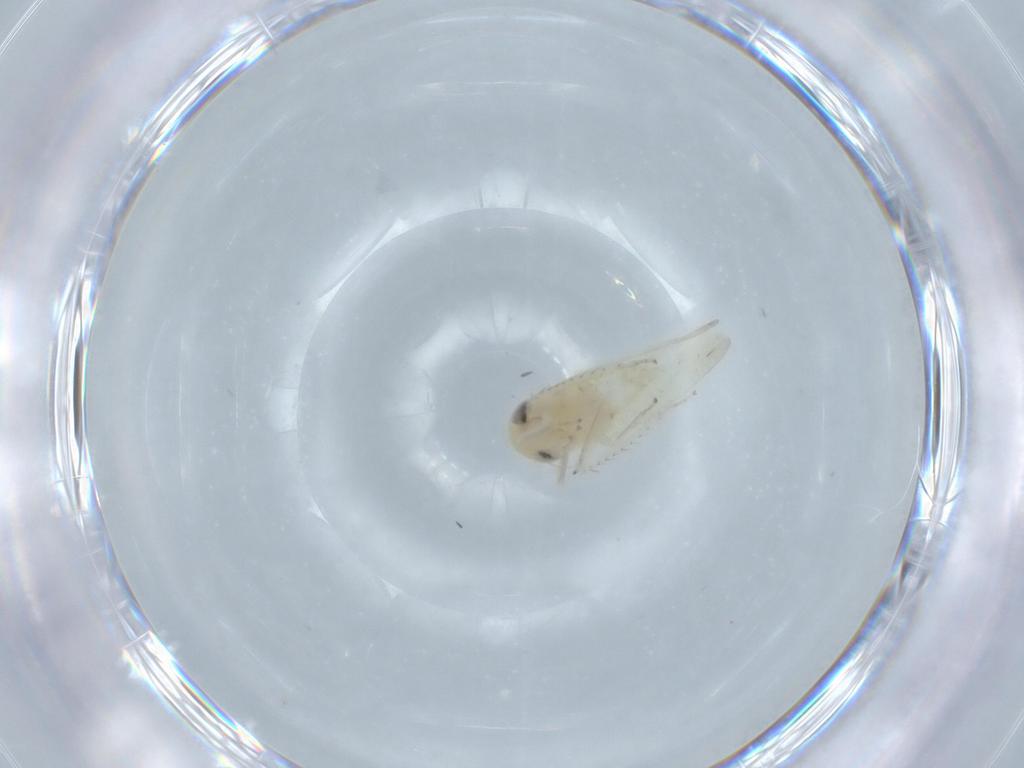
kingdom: Animalia
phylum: Arthropoda
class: Insecta
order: Hemiptera
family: Cicadellidae
